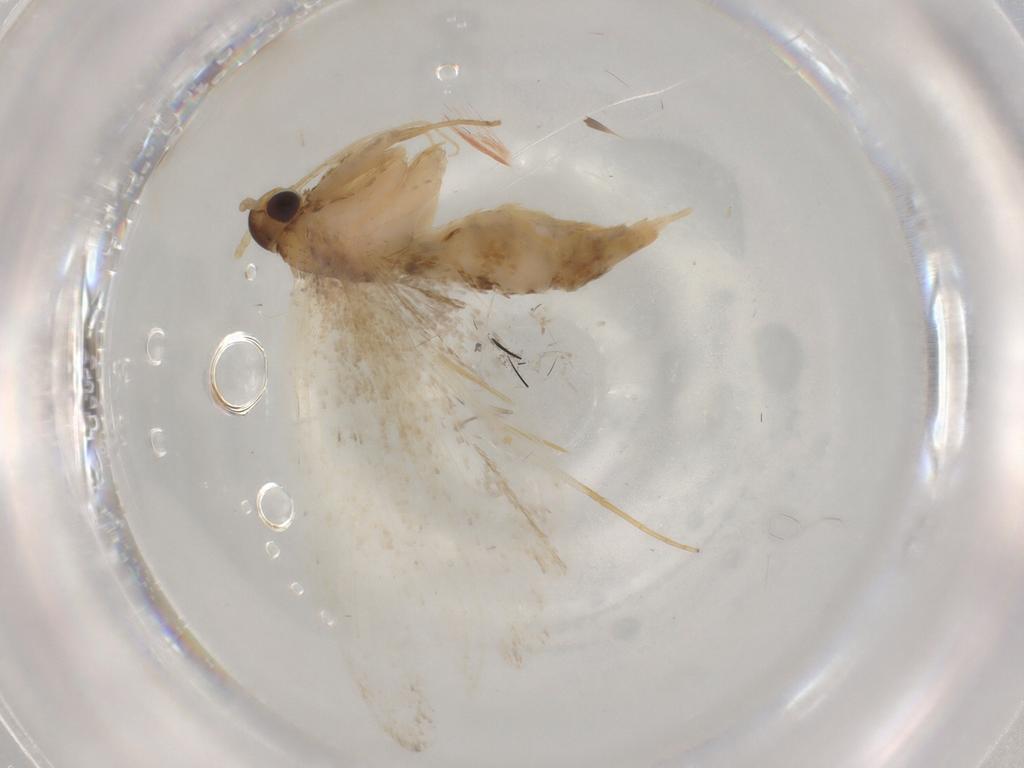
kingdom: Animalia
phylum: Arthropoda
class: Insecta
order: Lepidoptera
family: Lecithoceridae
